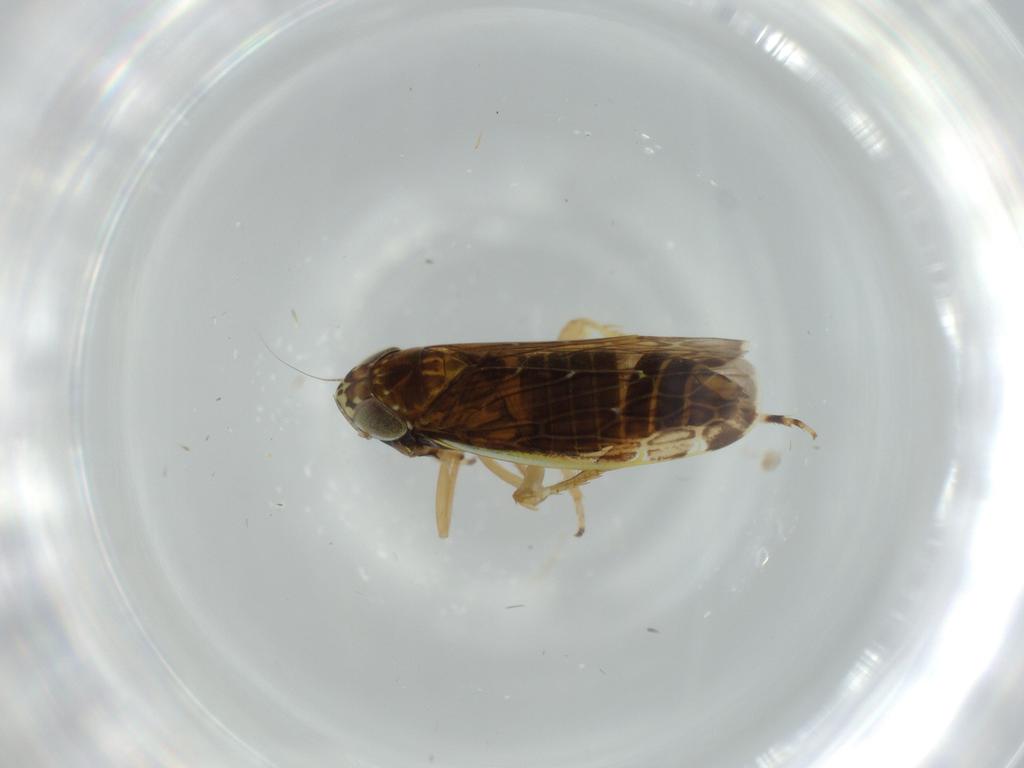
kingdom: Animalia
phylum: Arthropoda
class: Insecta
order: Hemiptera
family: Cicadellidae
